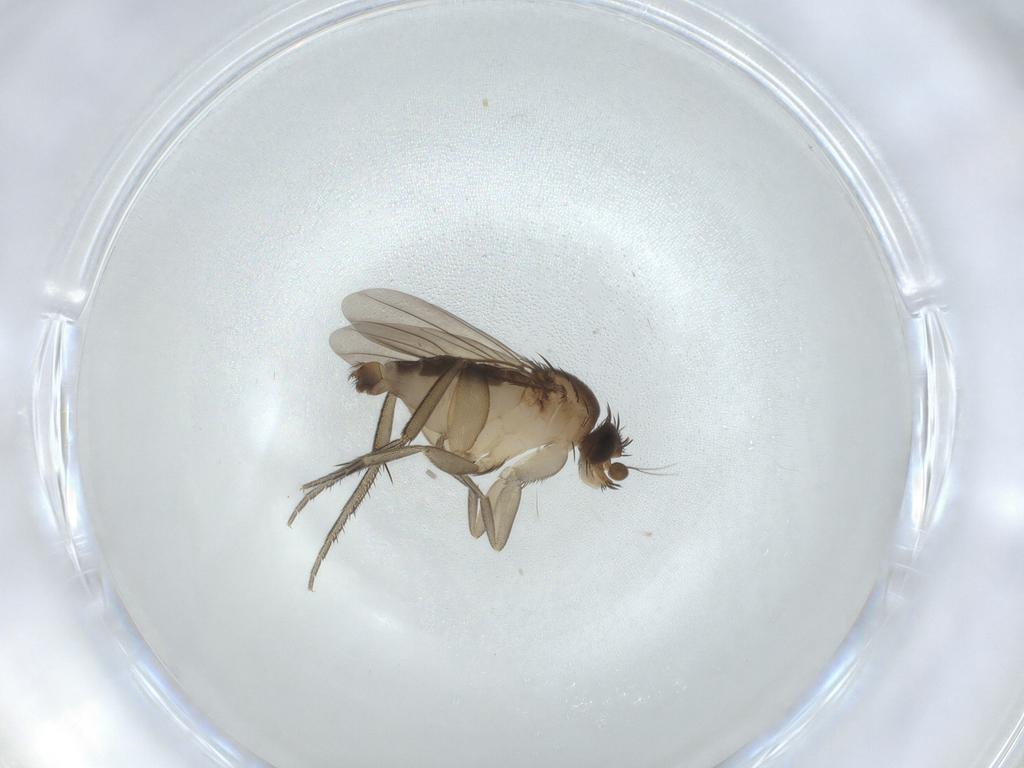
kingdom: Animalia
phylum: Arthropoda
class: Insecta
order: Diptera
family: Phoridae
